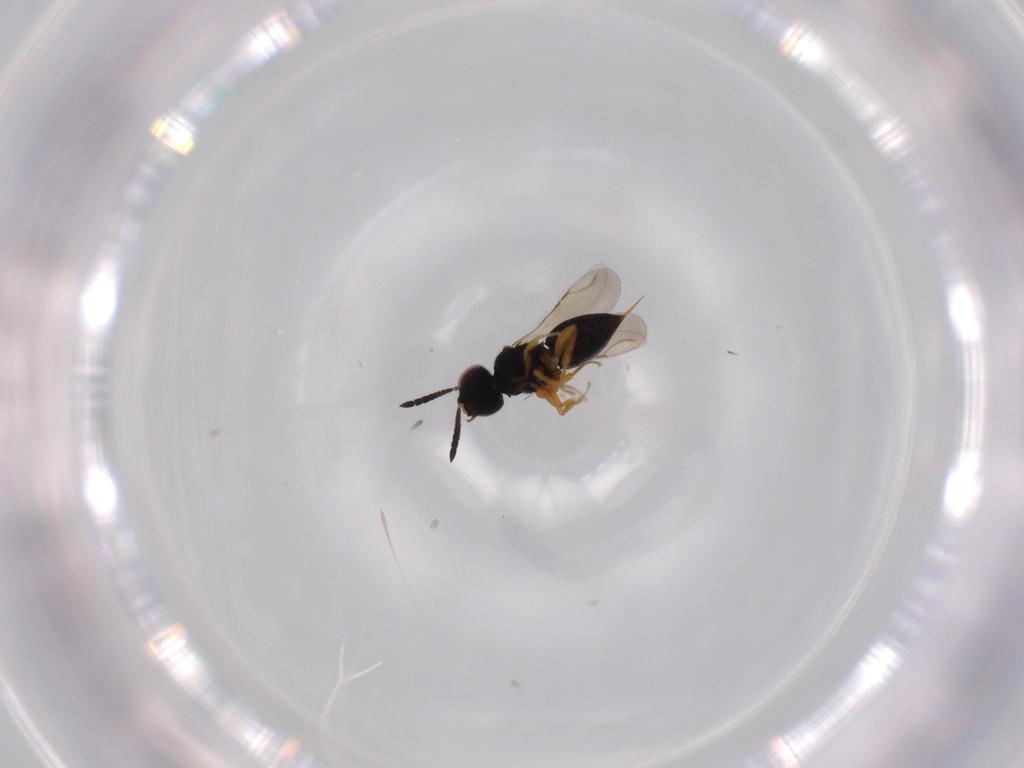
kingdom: Animalia
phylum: Arthropoda
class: Insecta
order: Hymenoptera
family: Ceraphronidae
